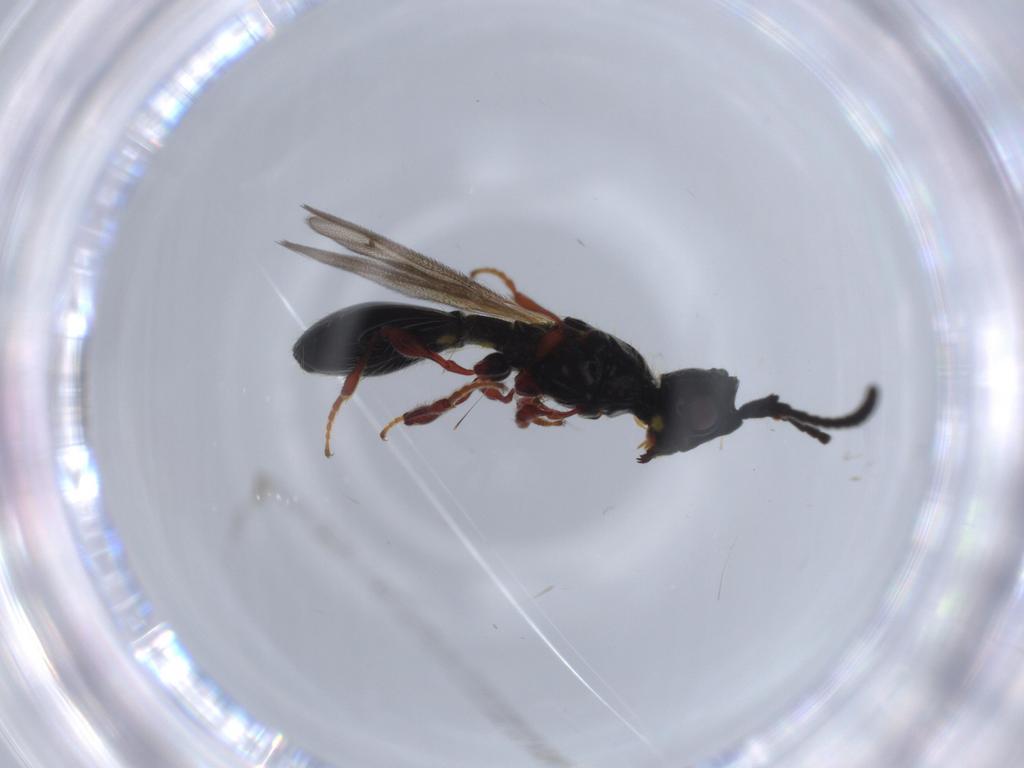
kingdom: Animalia
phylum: Arthropoda
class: Insecta
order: Hymenoptera
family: Diapriidae
